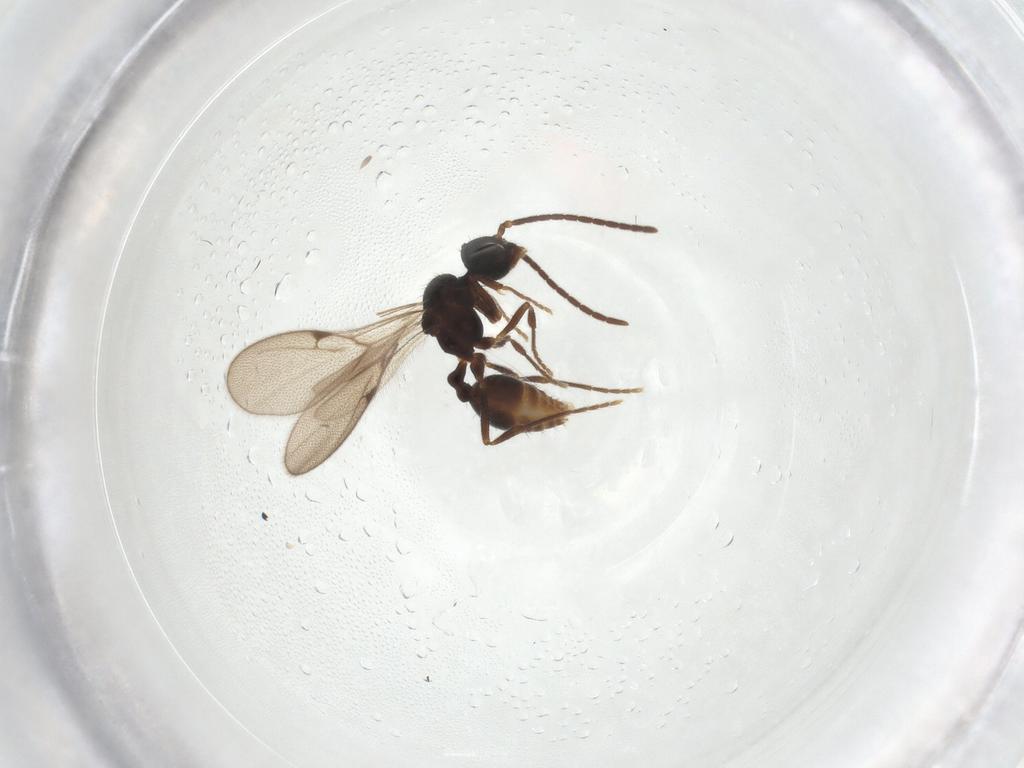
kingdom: Animalia
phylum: Arthropoda
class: Insecta
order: Hymenoptera
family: Formicidae
